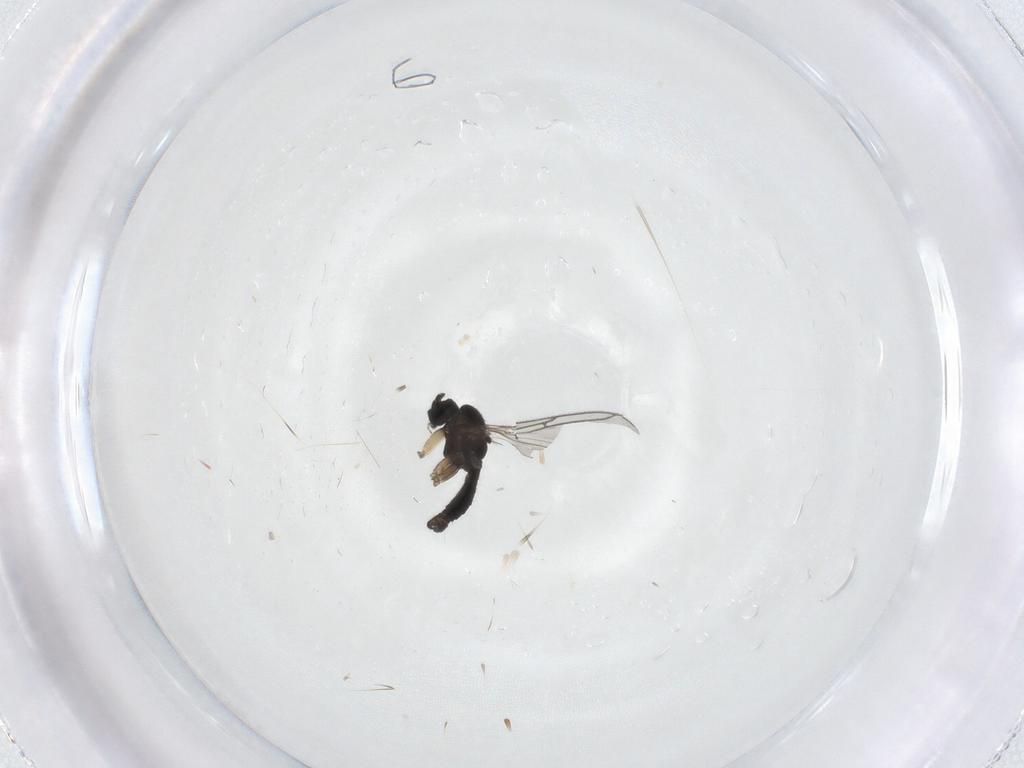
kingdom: Animalia
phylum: Arthropoda
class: Insecta
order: Diptera
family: Sciaridae
